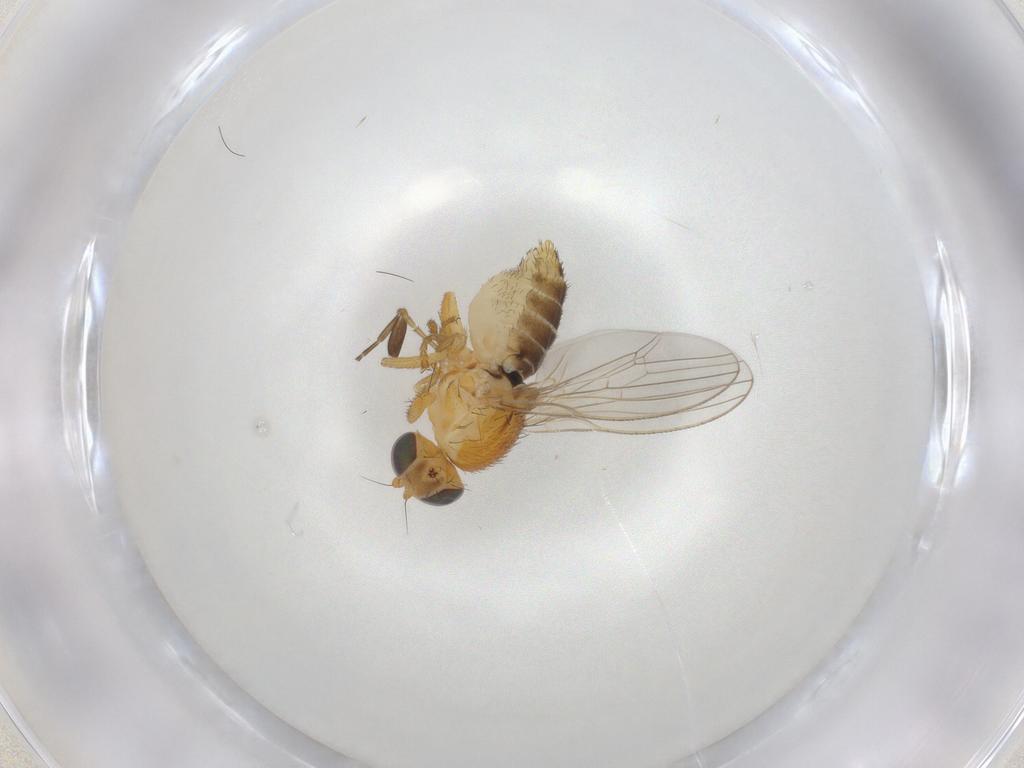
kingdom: Animalia
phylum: Arthropoda
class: Insecta
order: Diptera
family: Chyromyidae
